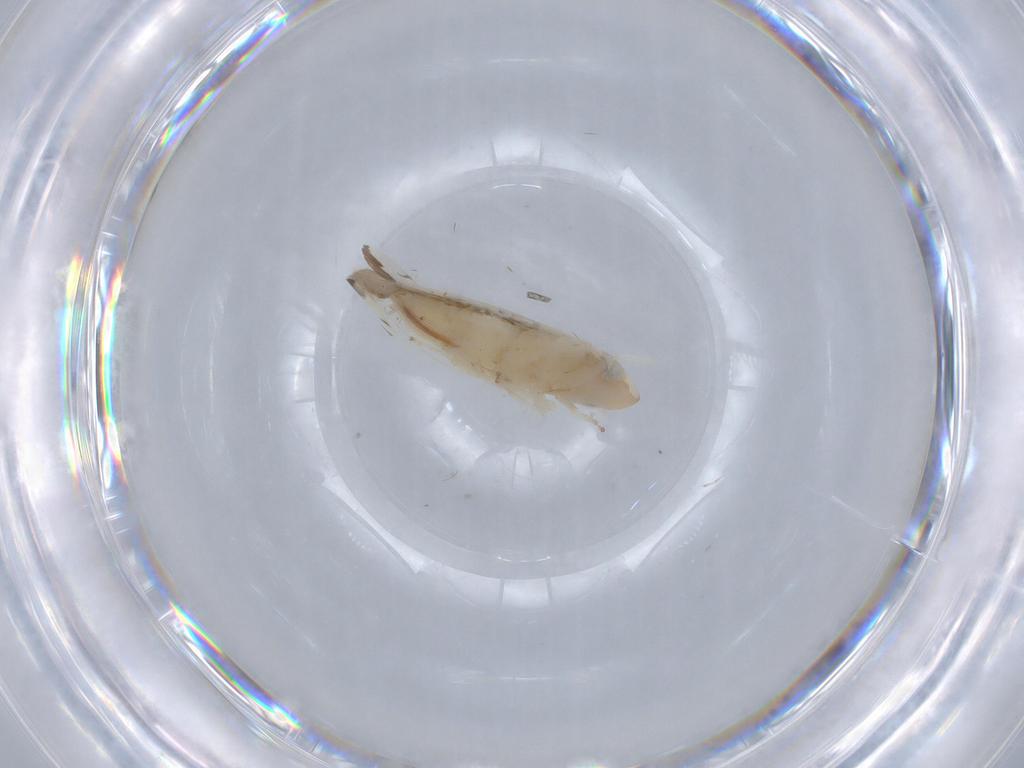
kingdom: Animalia
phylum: Arthropoda
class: Insecta
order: Hemiptera
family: Cicadellidae
